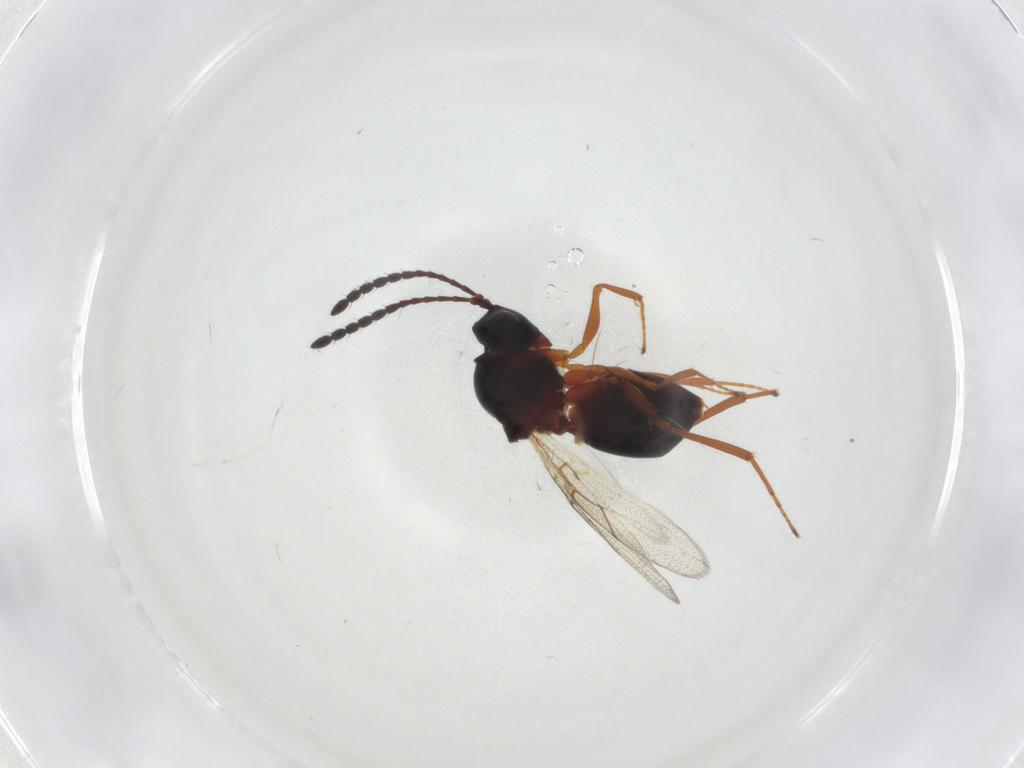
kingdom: Animalia
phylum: Arthropoda
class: Insecta
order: Hymenoptera
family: Figitidae
